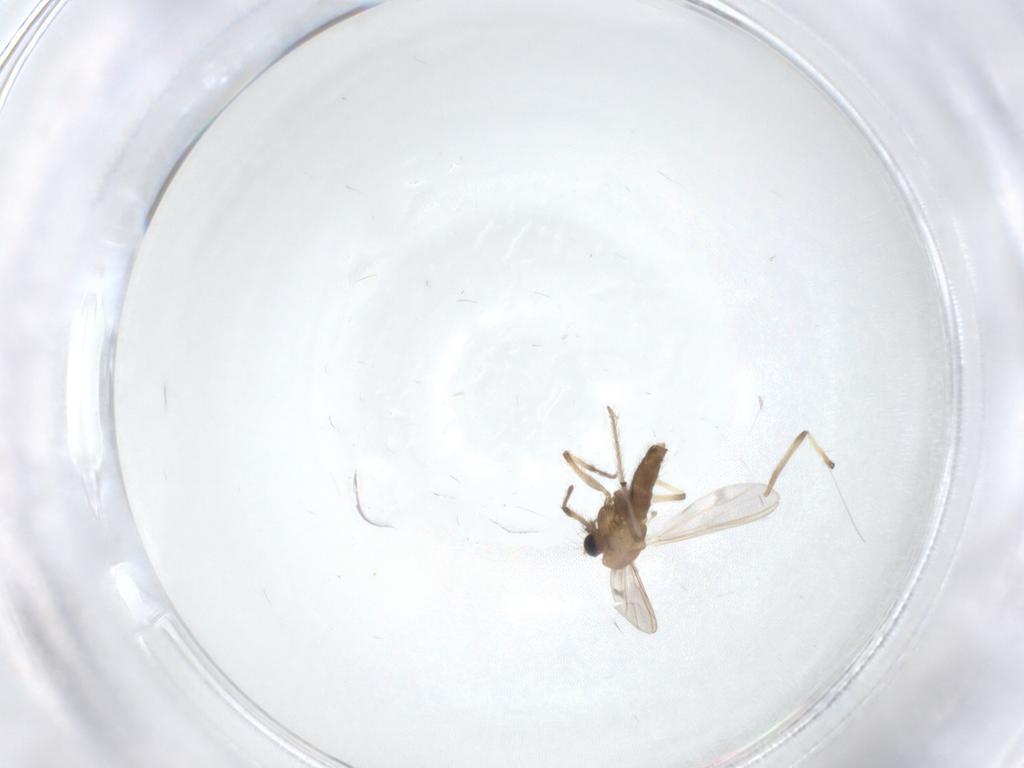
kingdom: Animalia
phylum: Arthropoda
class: Insecta
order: Diptera
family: Chironomidae
